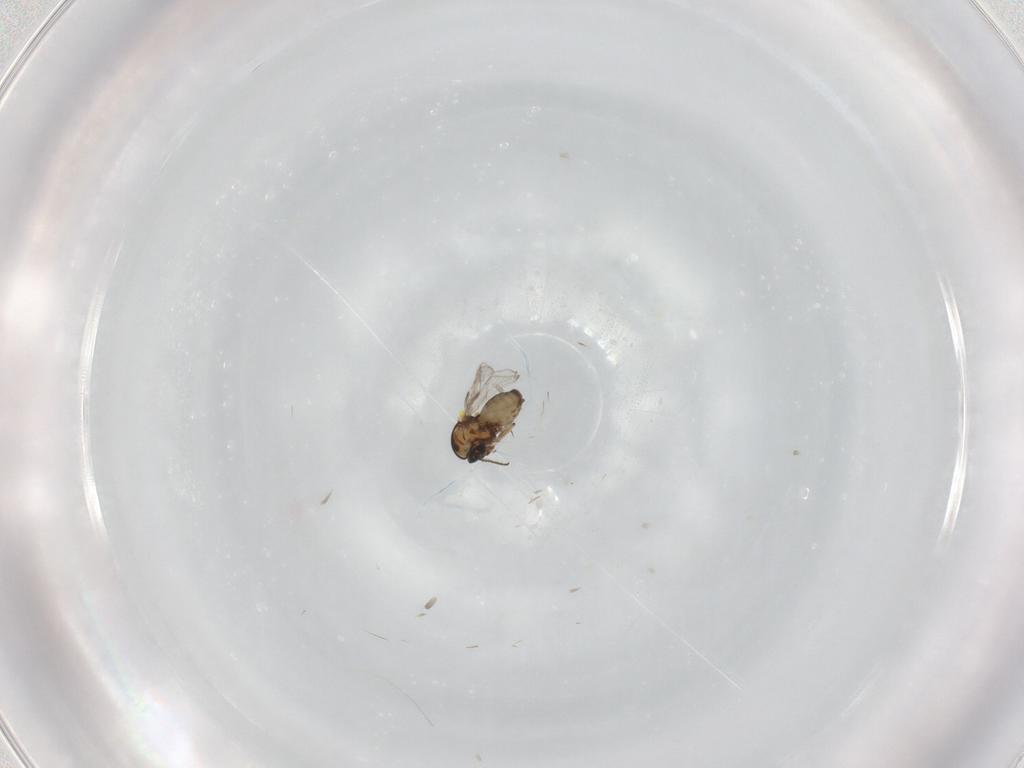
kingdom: Animalia
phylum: Arthropoda
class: Insecta
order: Diptera
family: Ceratopogonidae
